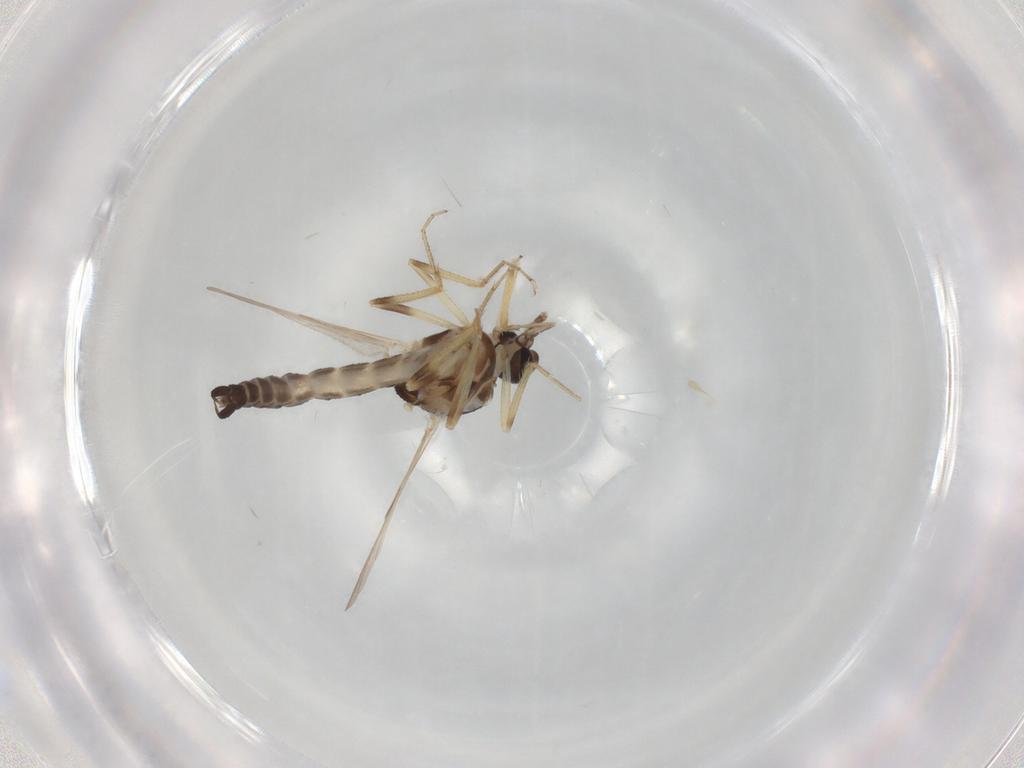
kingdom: Animalia
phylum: Arthropoda
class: Insecta
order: Diptera
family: Ceratopogonidae
